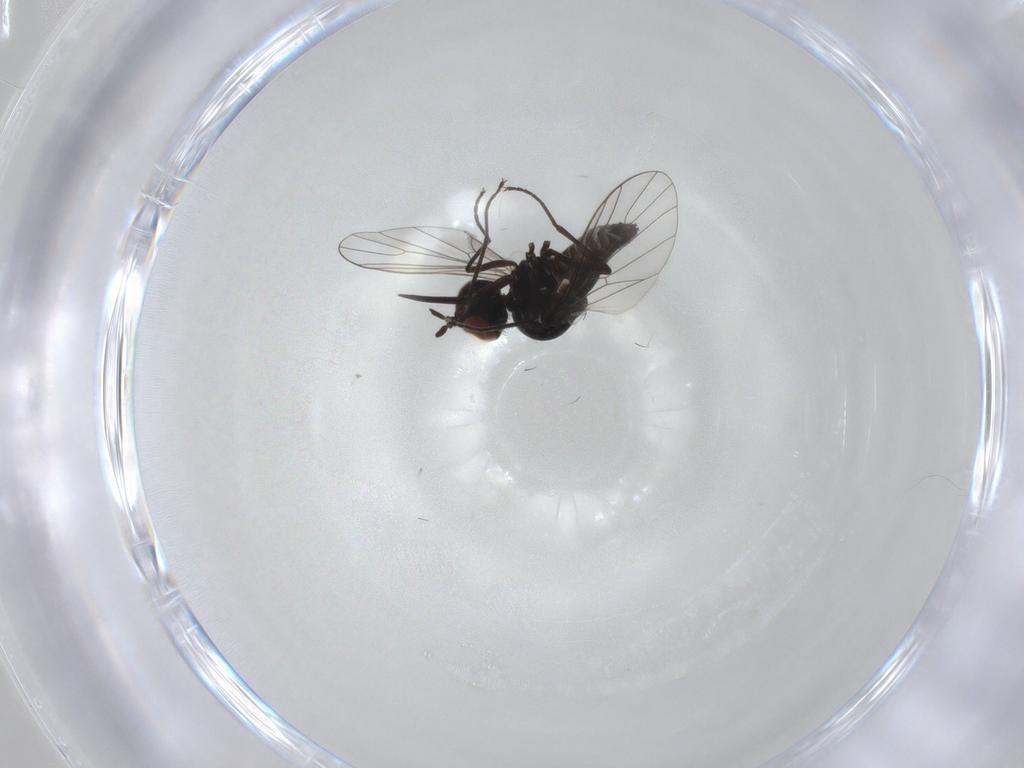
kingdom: Animalia
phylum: Arthropoda
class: Insecta
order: Diptera
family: Bombyliidae
